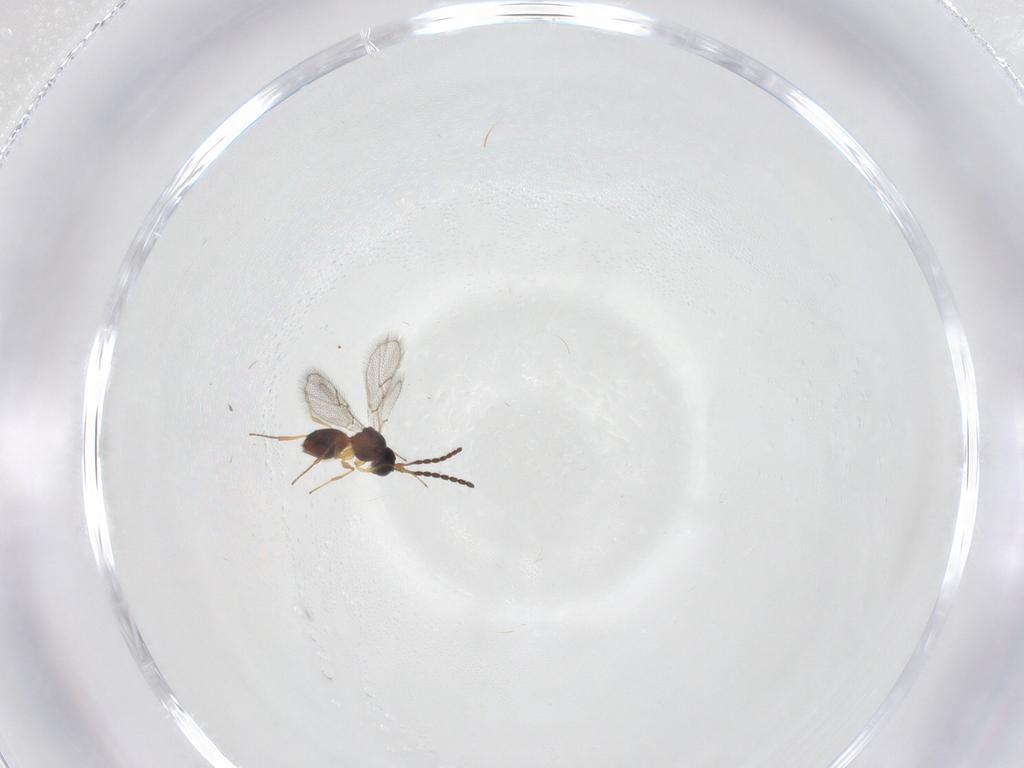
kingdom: Animalia
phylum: Arthropoda
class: Insecta
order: Hymenoptera
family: Figitidae
